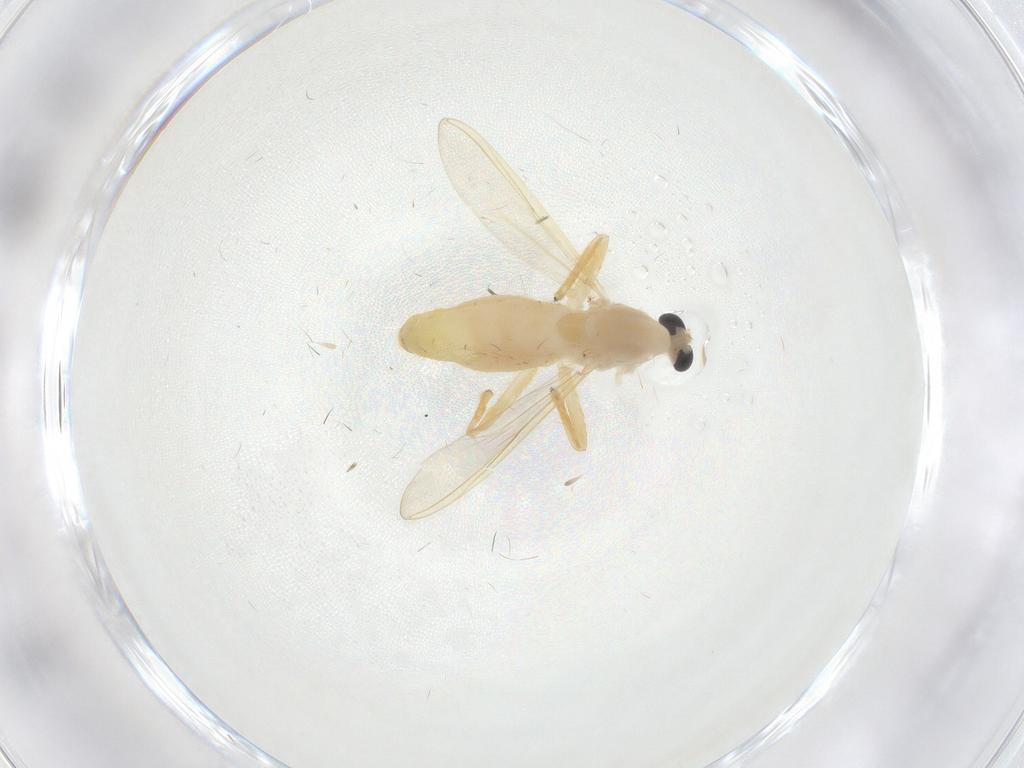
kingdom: Animalia
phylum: Arthropoda
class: Insecta
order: Diptera
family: Chironomidae
